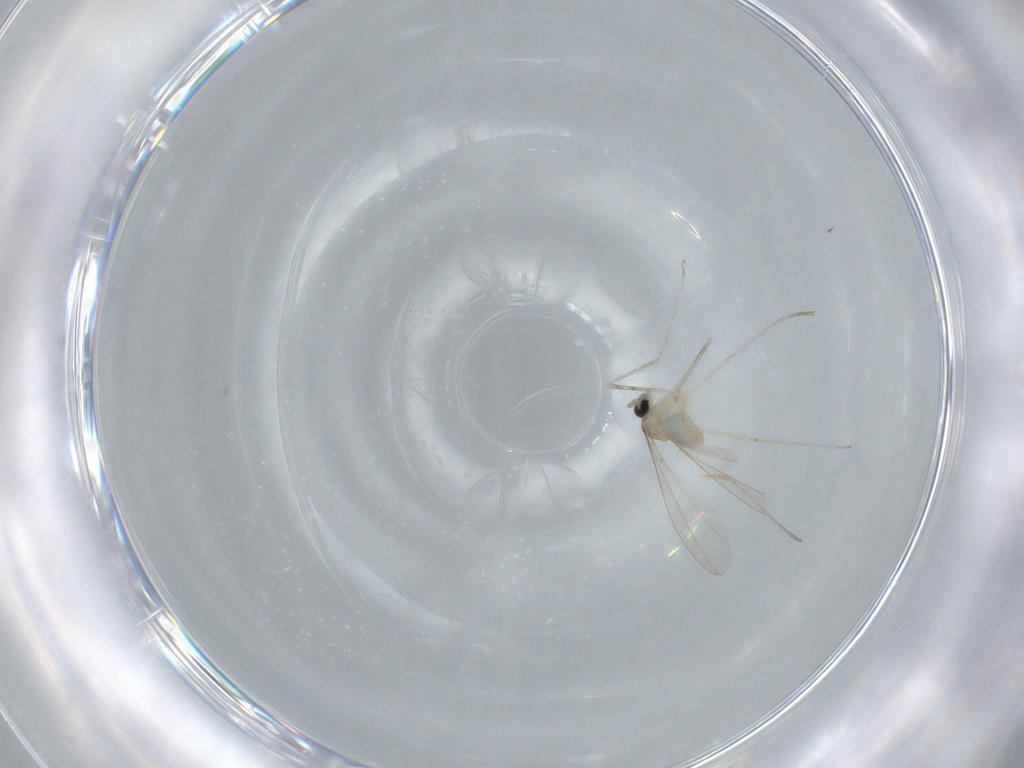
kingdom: Animalia
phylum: Arthropoda
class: Insecta
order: Diptera
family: Cecidomyiidae
